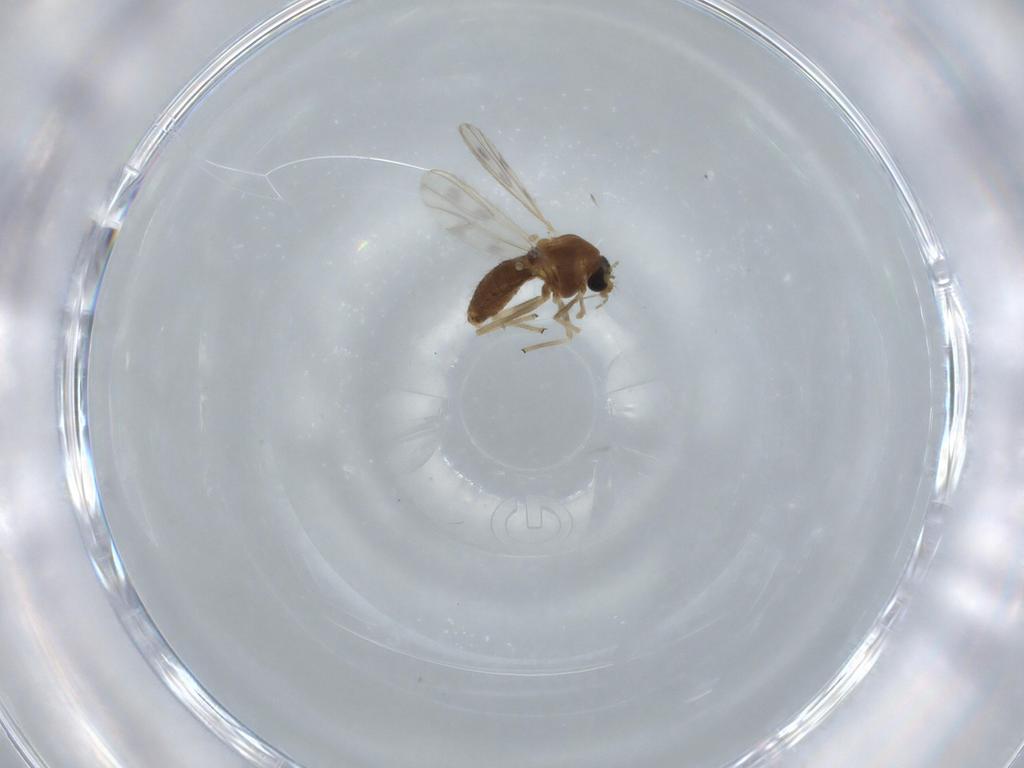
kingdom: Animalia
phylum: Arthropoda
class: Insecta
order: Diptera
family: Chironomidae
